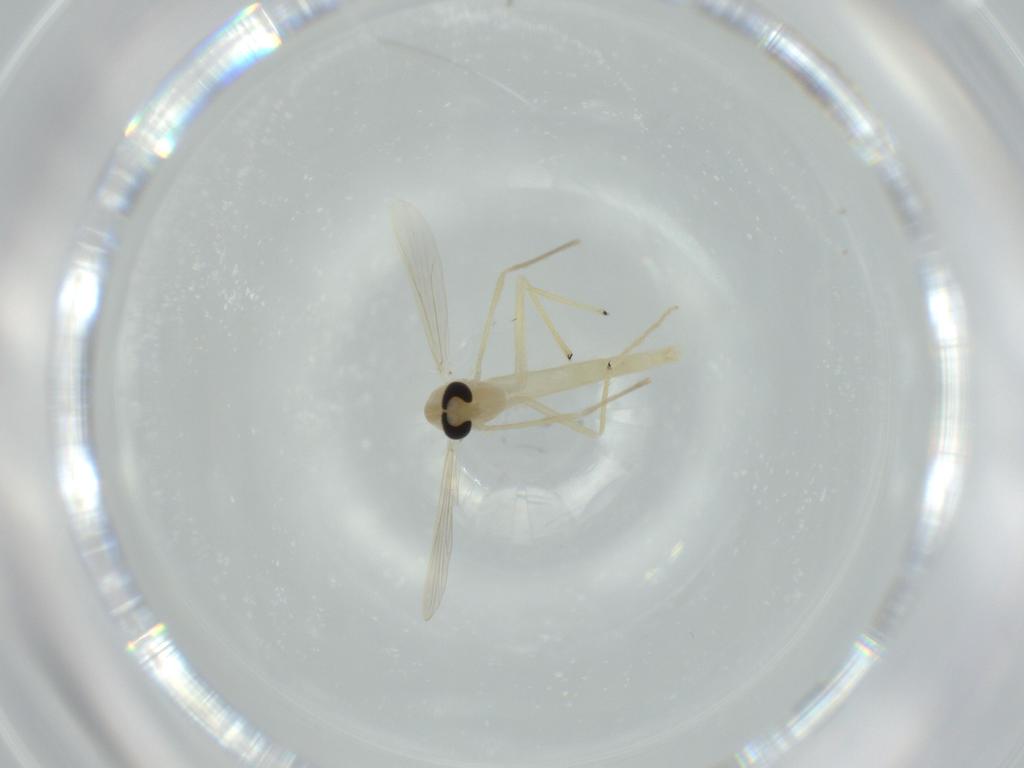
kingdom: Animalia
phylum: Arthropoda
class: Insecta
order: Diptera
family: Chironomidae
